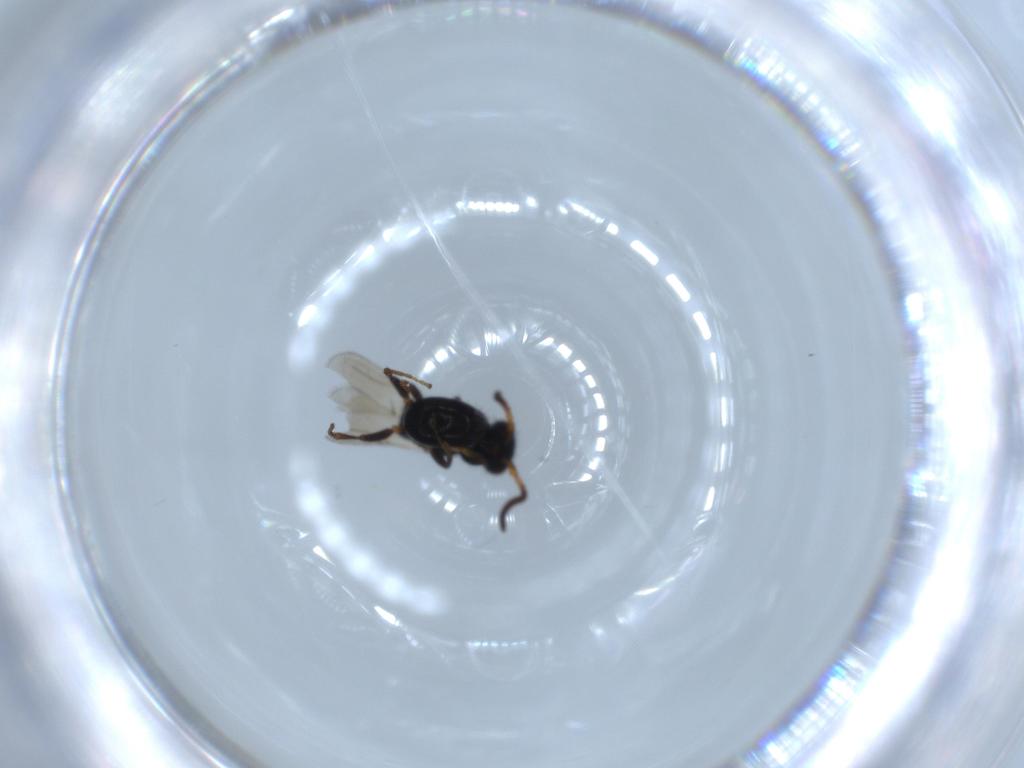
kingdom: Animalia
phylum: Arthropoda
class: Insecta
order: Hymenoptera
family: Bethylidae
